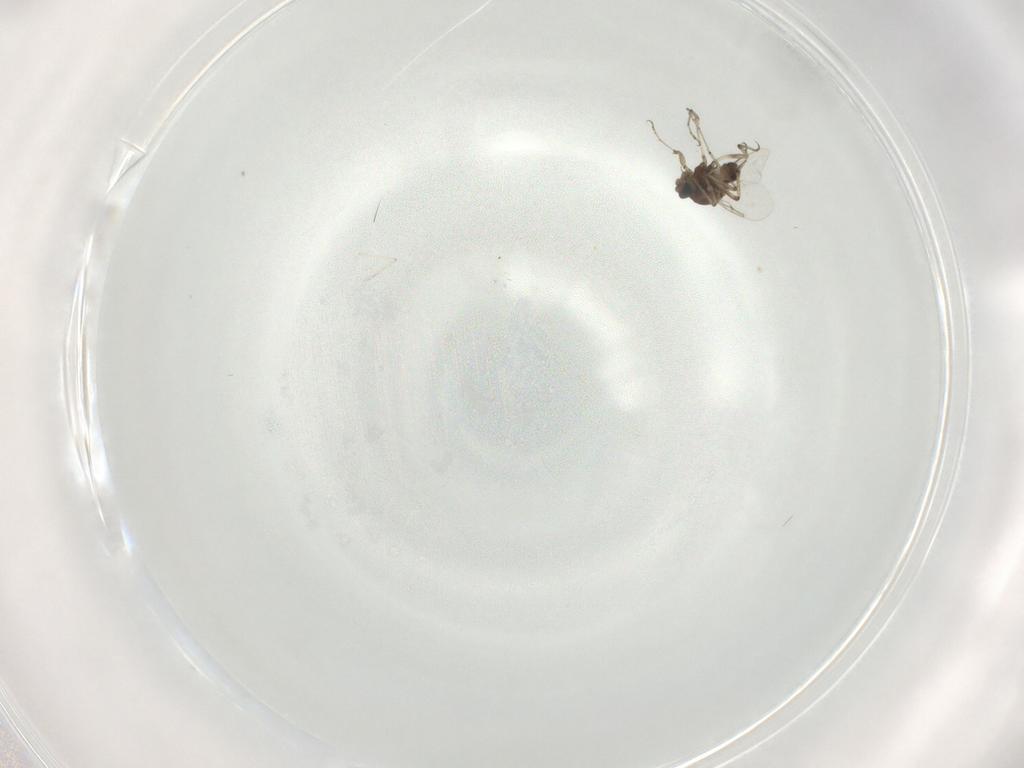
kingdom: Animalia
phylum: Arthropoda
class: Insecta
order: Diptera
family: Ceratopogonidae
